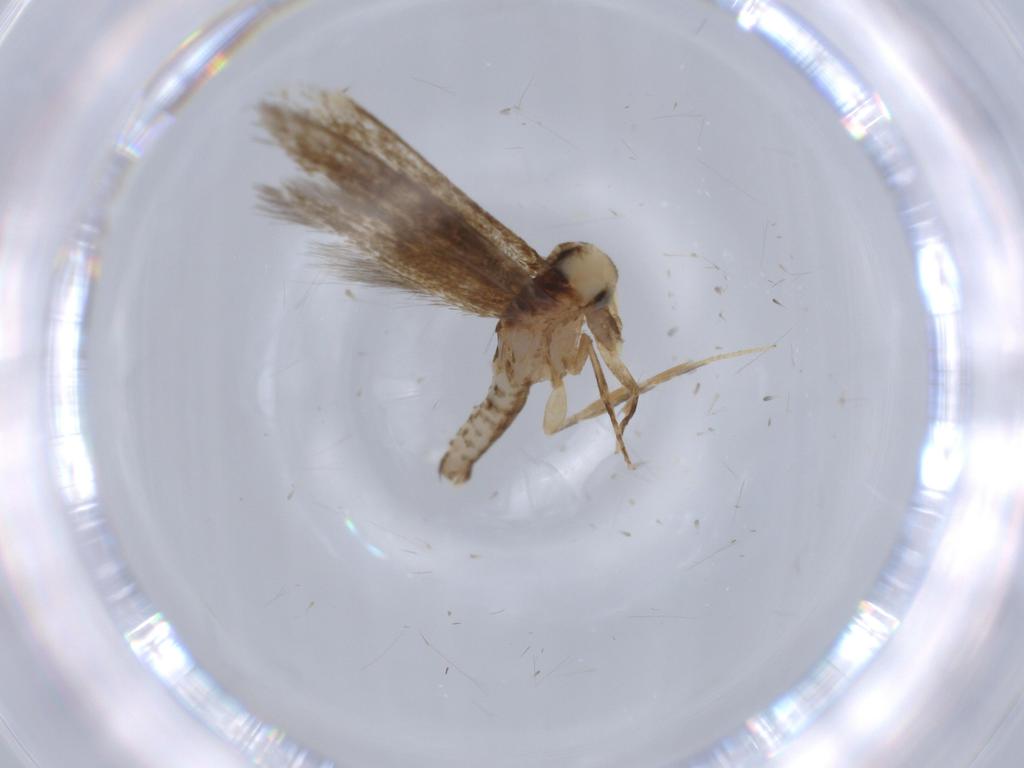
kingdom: Animalia
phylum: Arthropoda
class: Insecta
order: Lepidoptera
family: Tineidae
